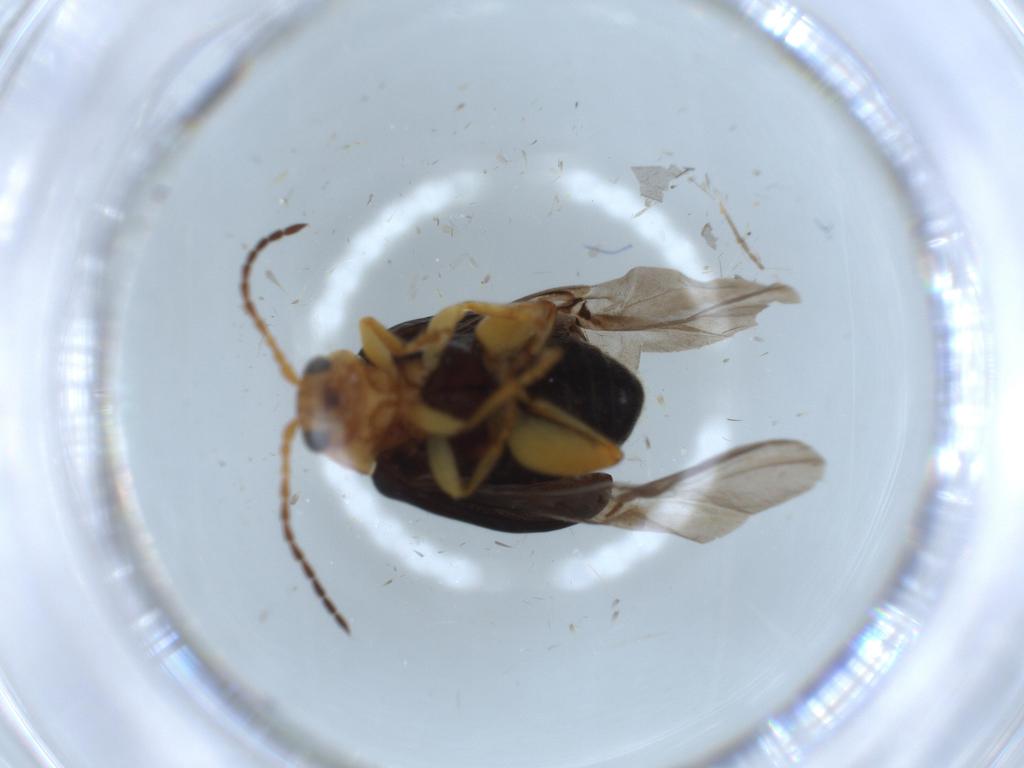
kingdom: Animalia
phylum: Arthropoda
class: Insecta
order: Coleoptera
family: Chrysomelidae
